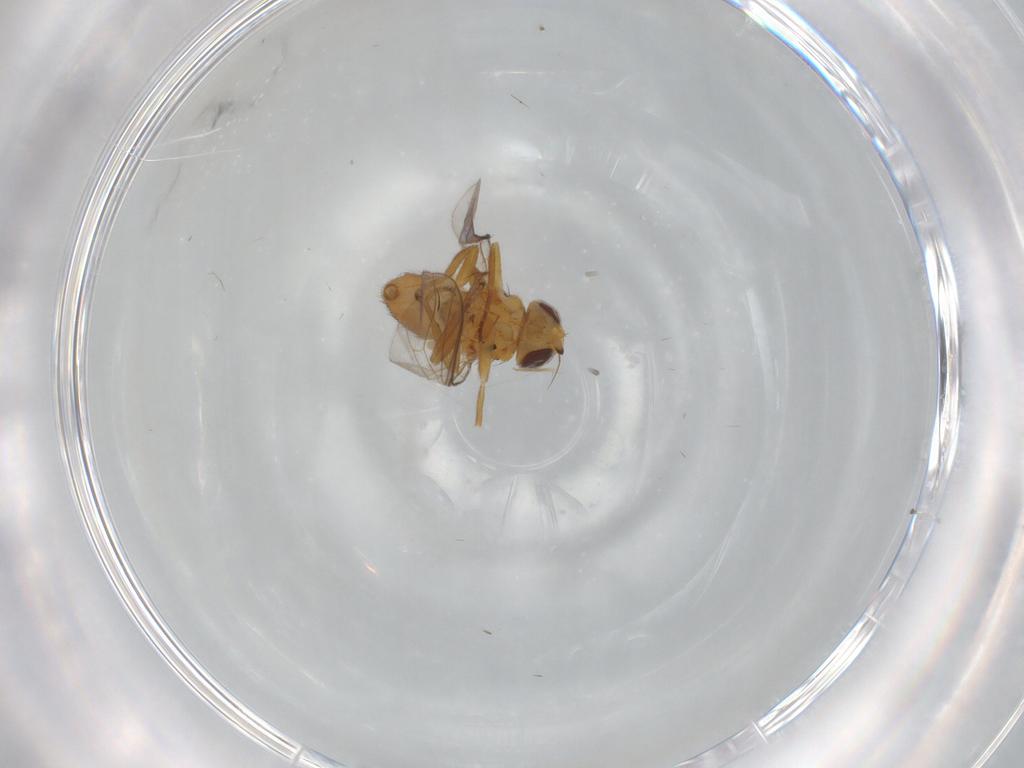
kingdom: Animalia
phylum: Arthropoda
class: Insecta
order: Diptera
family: Chloropidae
